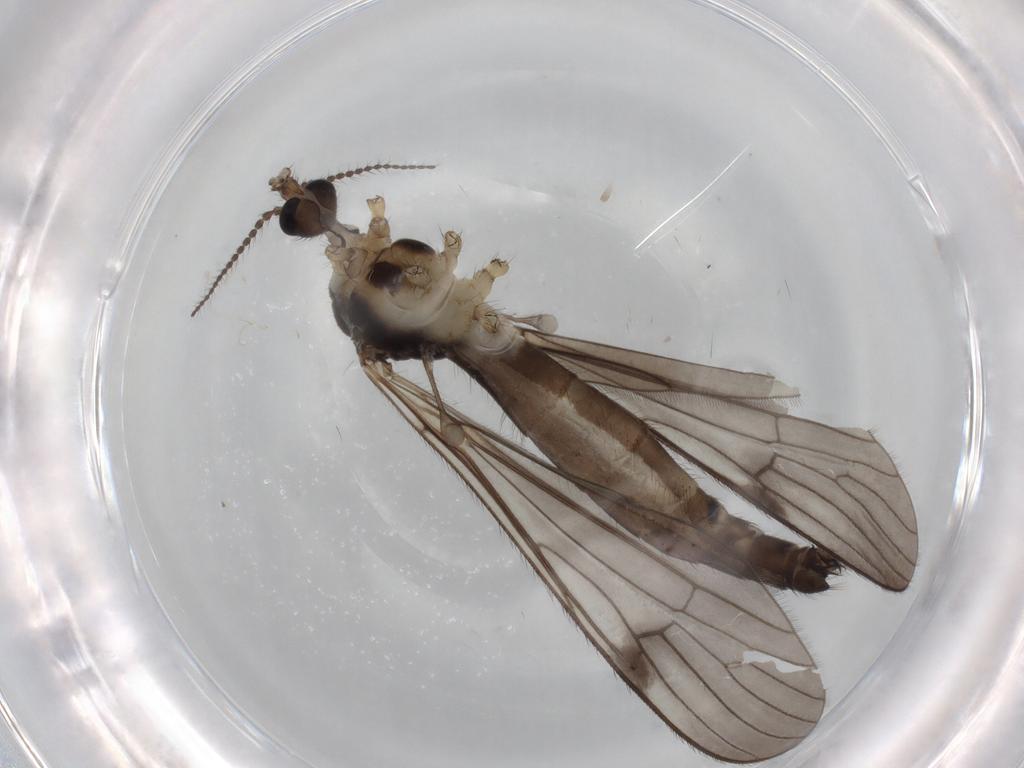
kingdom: Animalia
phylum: Arthropoda
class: Insecta
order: Diptera
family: Limoniidae
